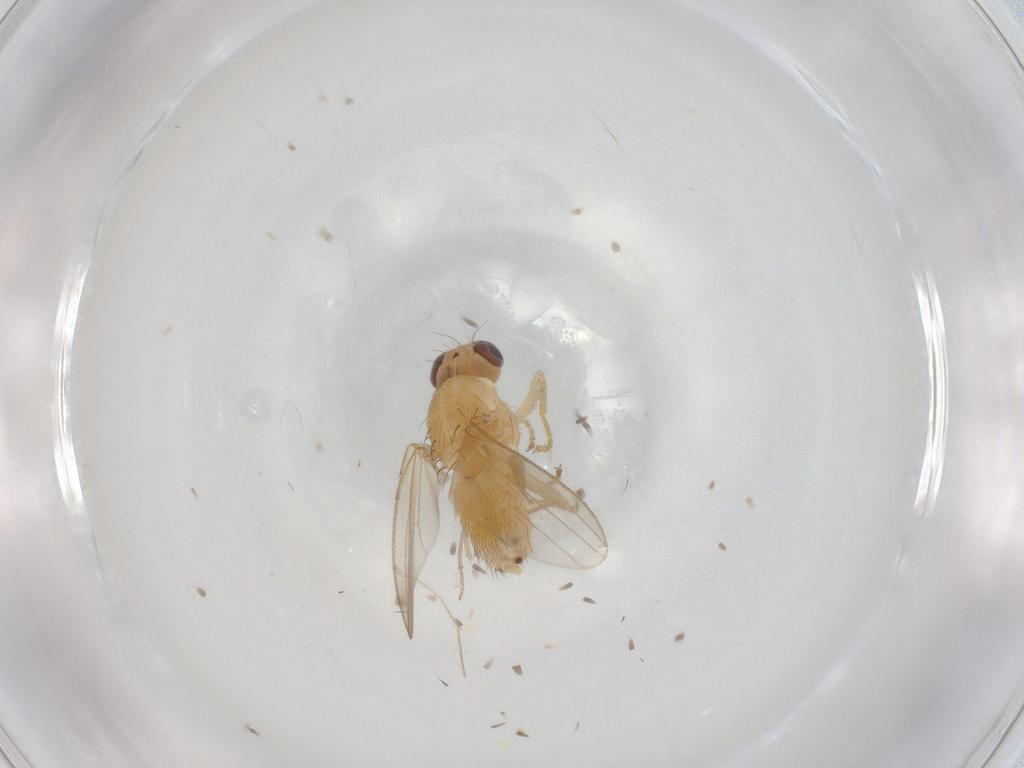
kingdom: Animalia
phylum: Arthropoda
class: Insecta
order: Diptera
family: Chyromyidae
